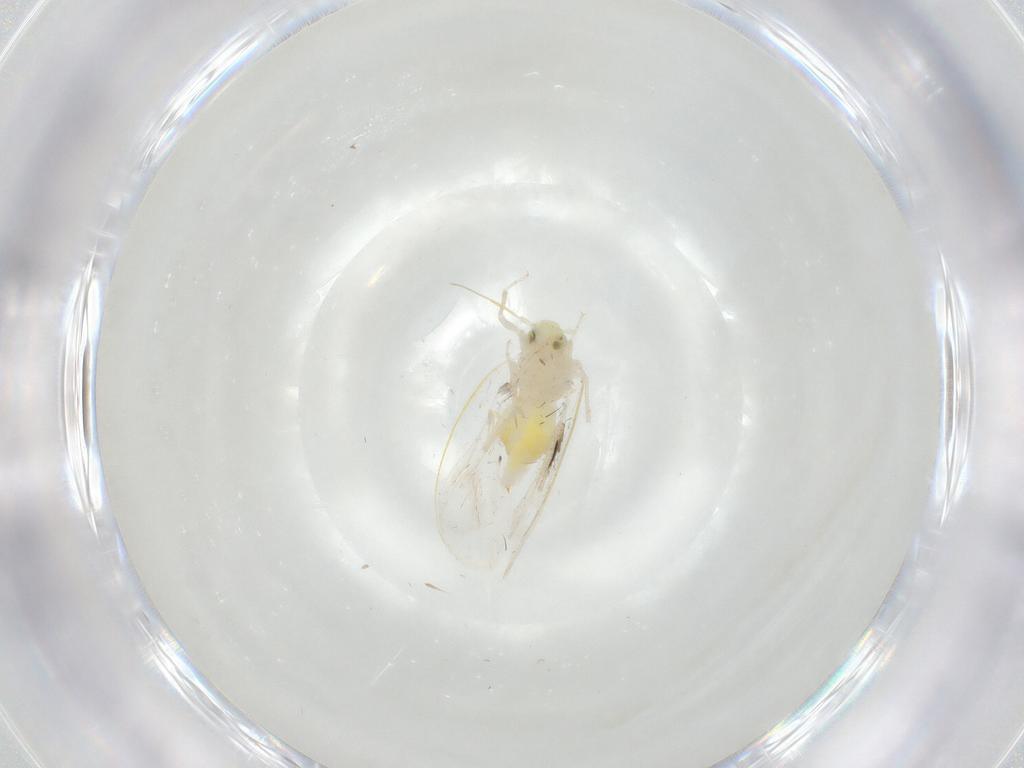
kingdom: Animalia
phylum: Arthropoda
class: Insecta
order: Hemiptera
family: Aleyrodidae
